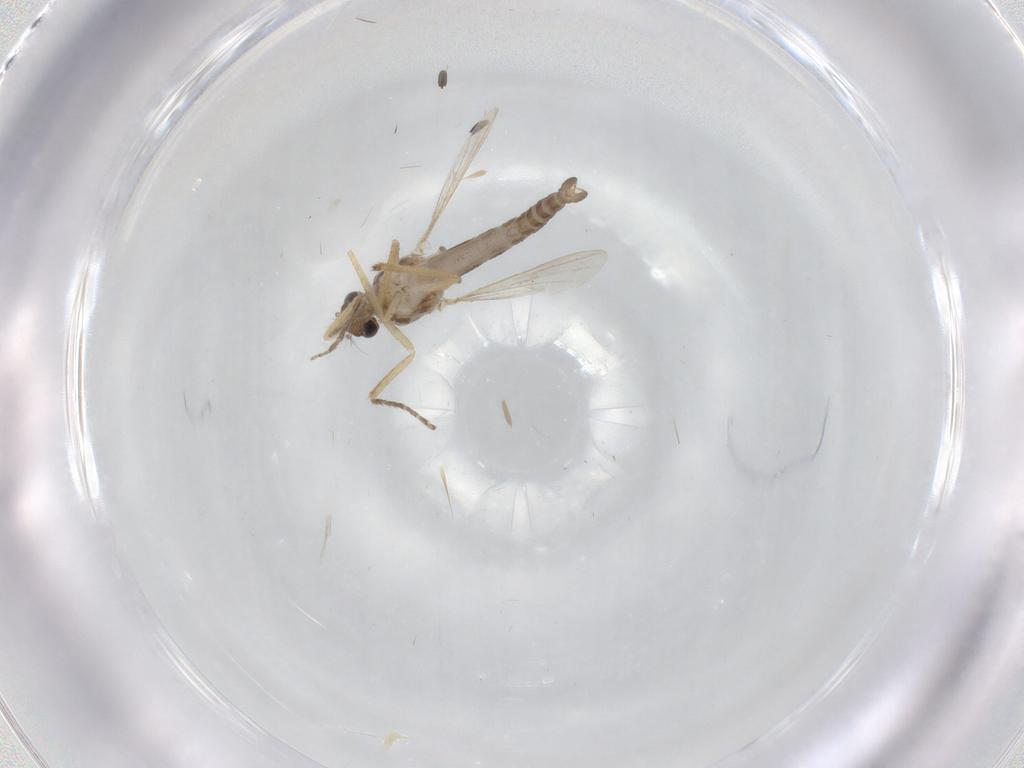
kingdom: Animalia
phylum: Arthropoda
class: Insecta
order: Diptera
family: Ceratopogonidae
